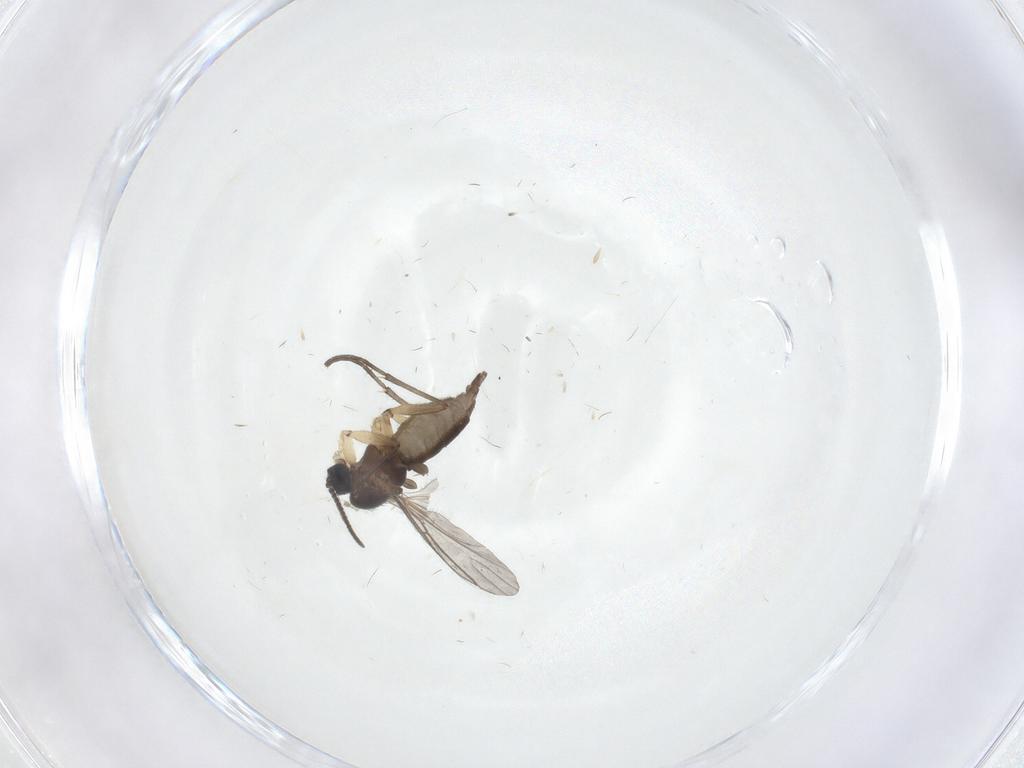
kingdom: Animalia
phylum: Arthropoda
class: Insecta
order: Diptera
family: Sciaridae
